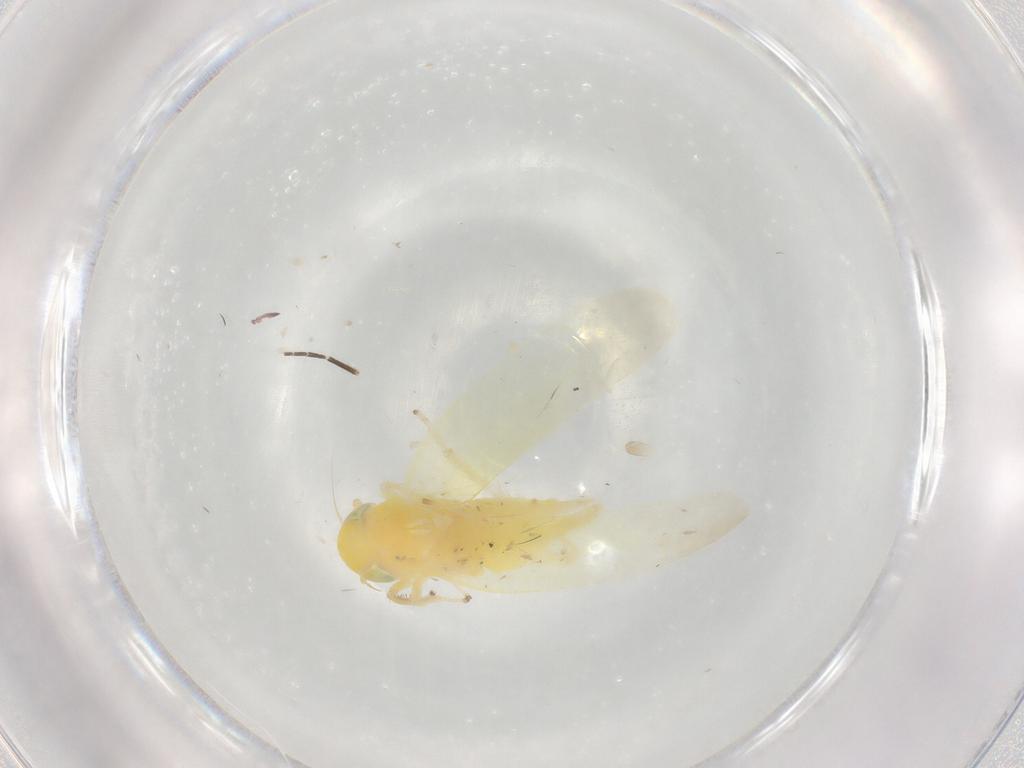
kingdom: Animalia
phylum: Arthropoda
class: Insecta
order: Hemiptera
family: Cicadellidae
